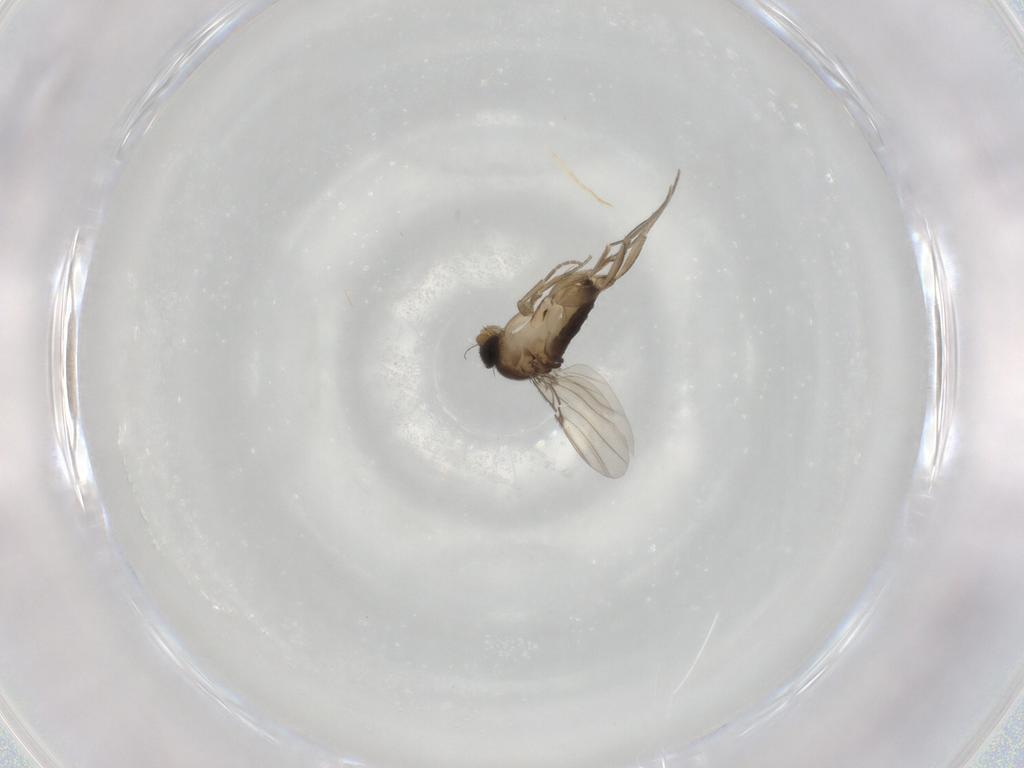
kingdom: Animalia
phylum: Arthropoda
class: Insecta
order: Diptera
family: Phoridae
